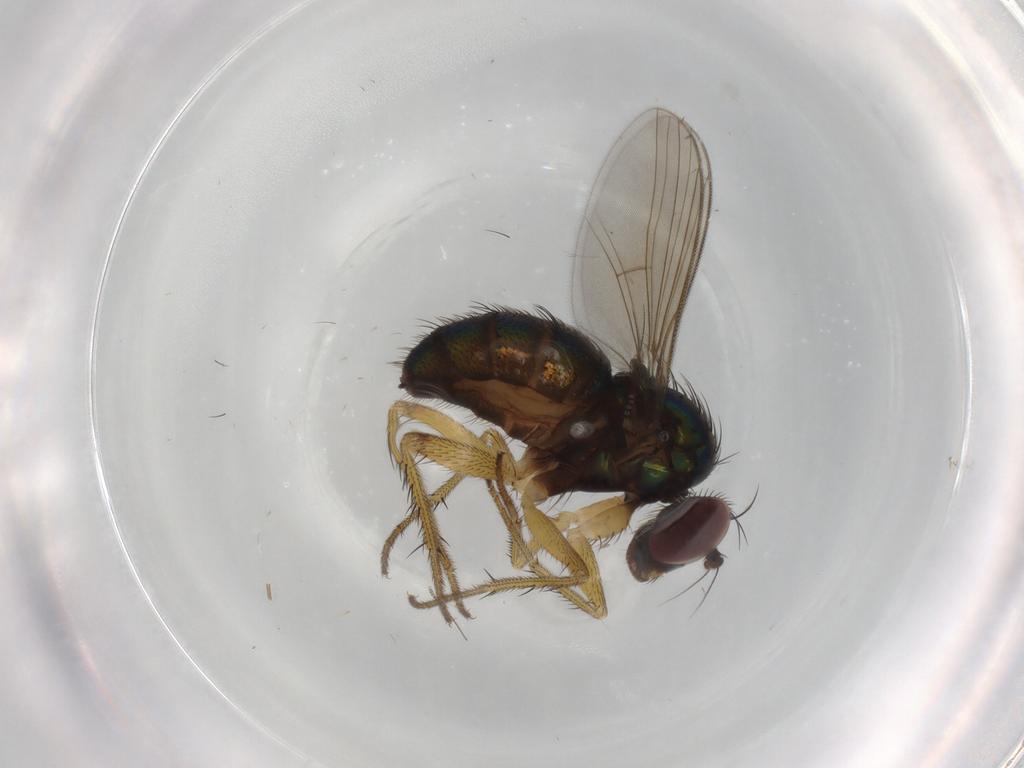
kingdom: Animalia
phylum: Arthropoda
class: Insecta
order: Diptera
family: Dolichopodidae
